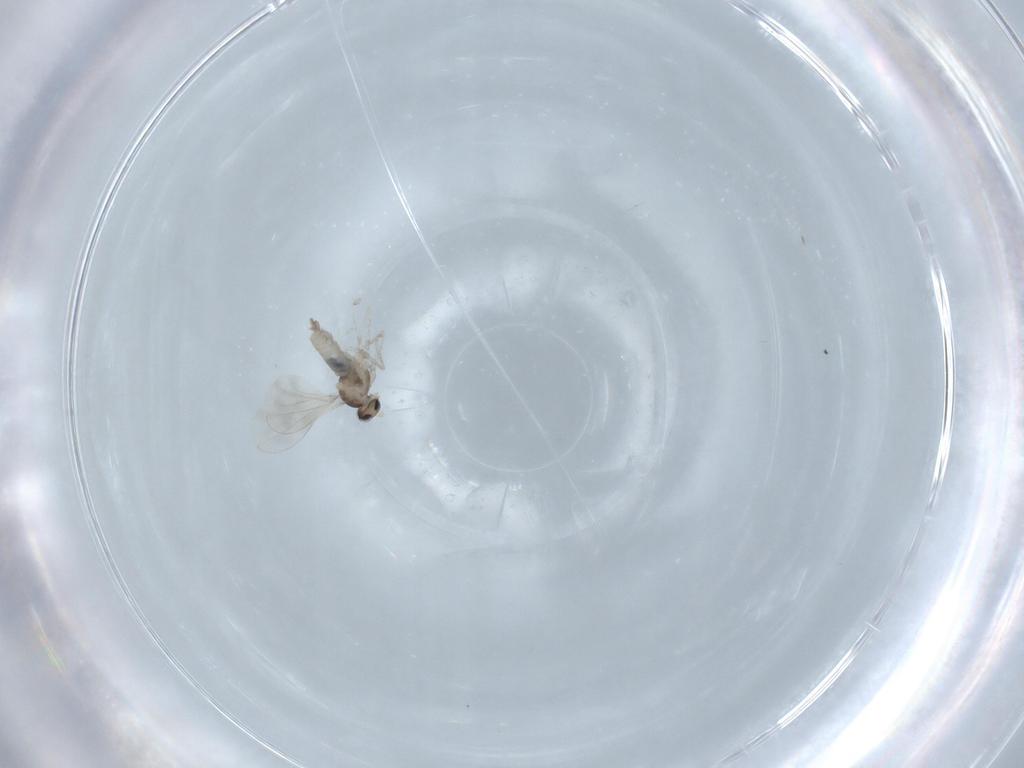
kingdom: Animalia
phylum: Arthropoda
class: Insecta
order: Diptera
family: Cecidomyiidae
